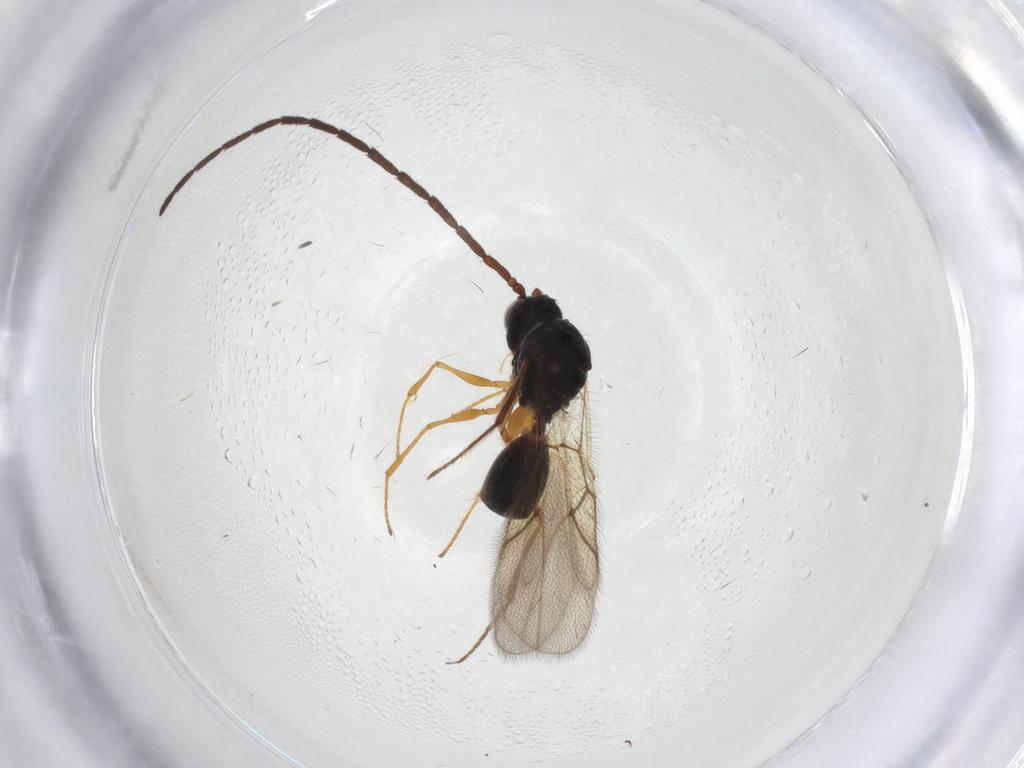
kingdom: Animalia
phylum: Arthropoda
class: Insecta
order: Hymenoptera
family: Figitidae
